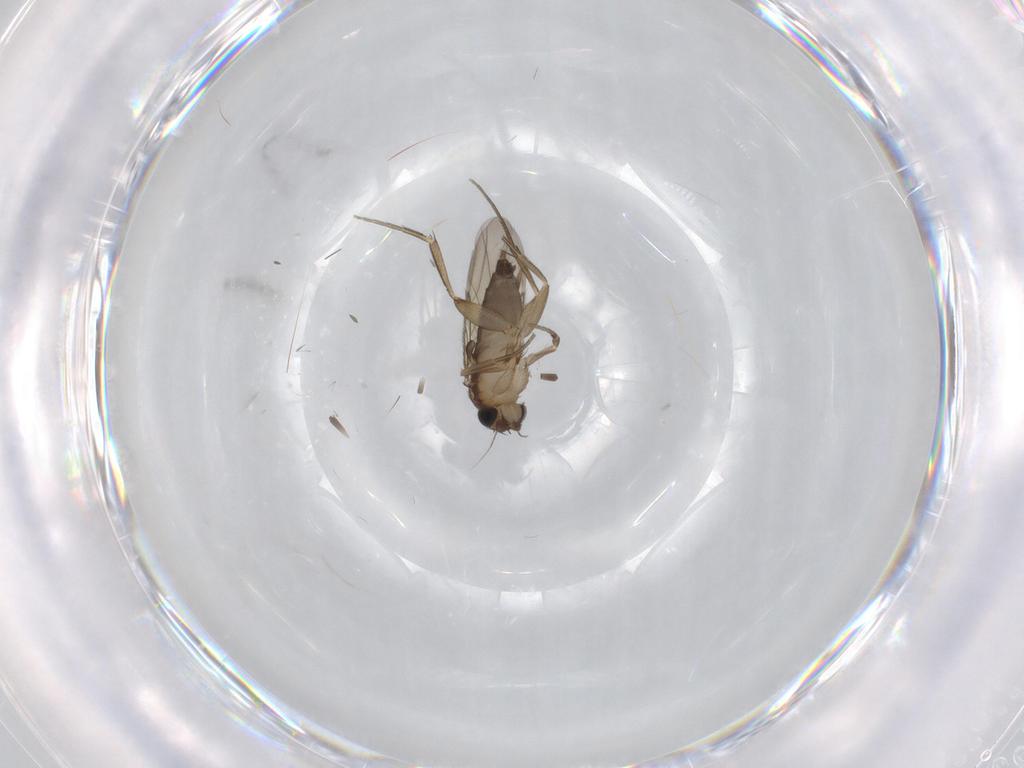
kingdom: Animalia
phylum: Arthropoda
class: Insecta
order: Diptera
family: Phoridae
